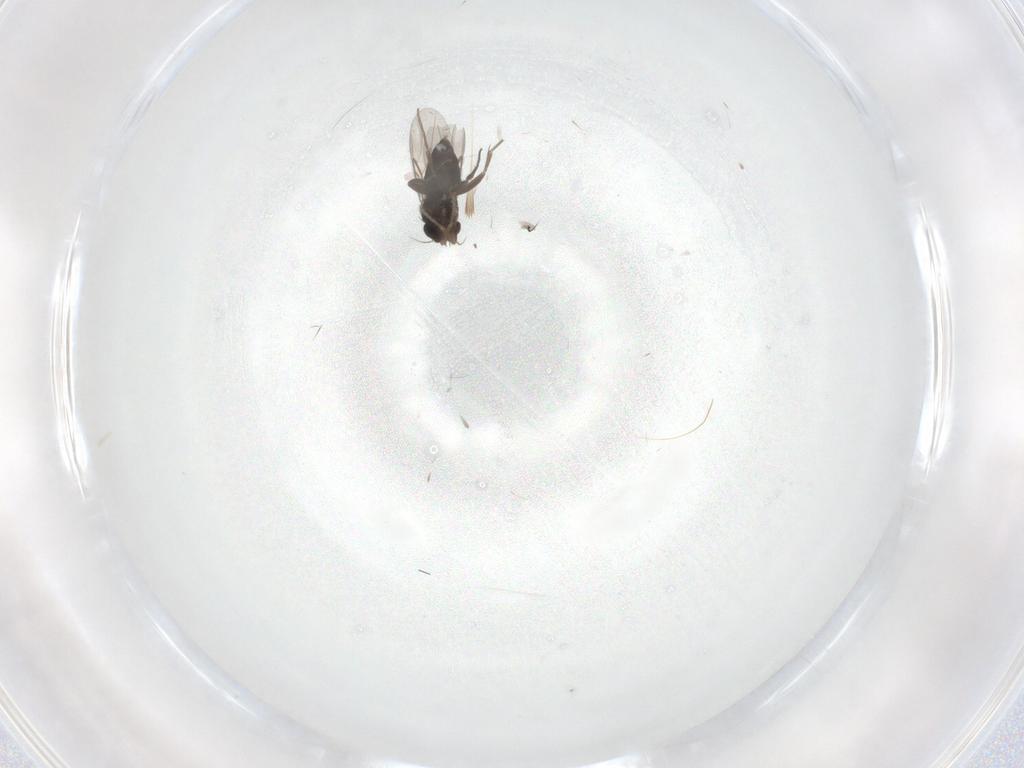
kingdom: Animalia
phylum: Arthropoda
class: Insecta
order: Diptera
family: Phoridae
